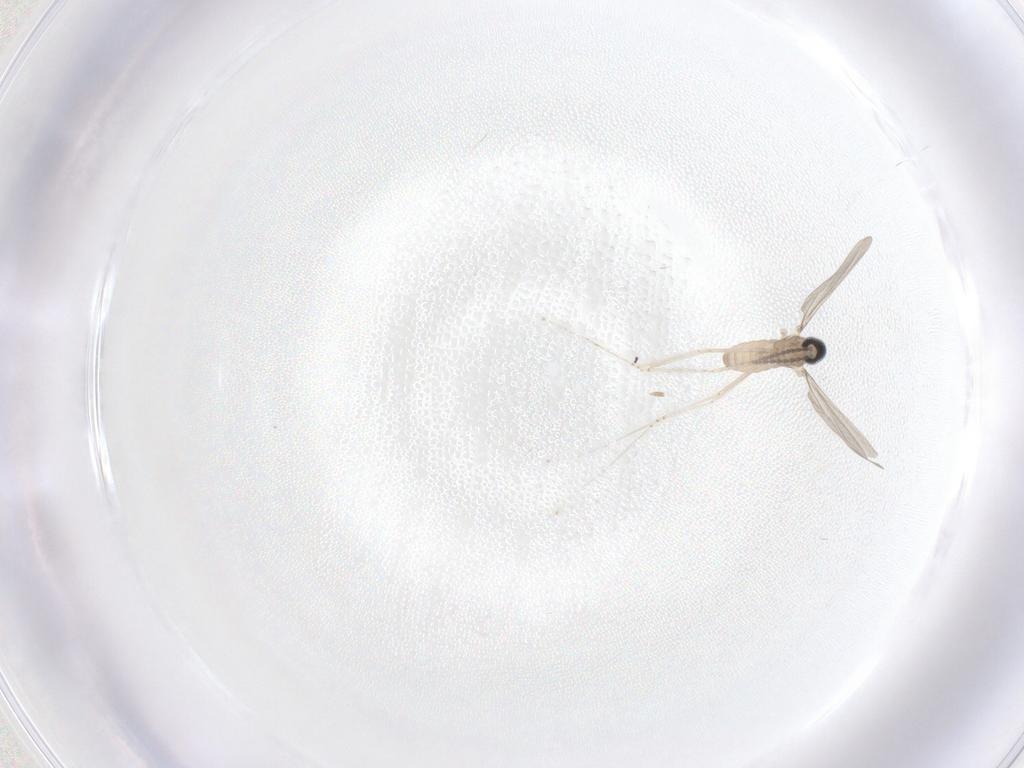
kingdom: Animalia
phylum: Arthropoda
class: Insecta
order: Diptera
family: Cecidomyiidae
